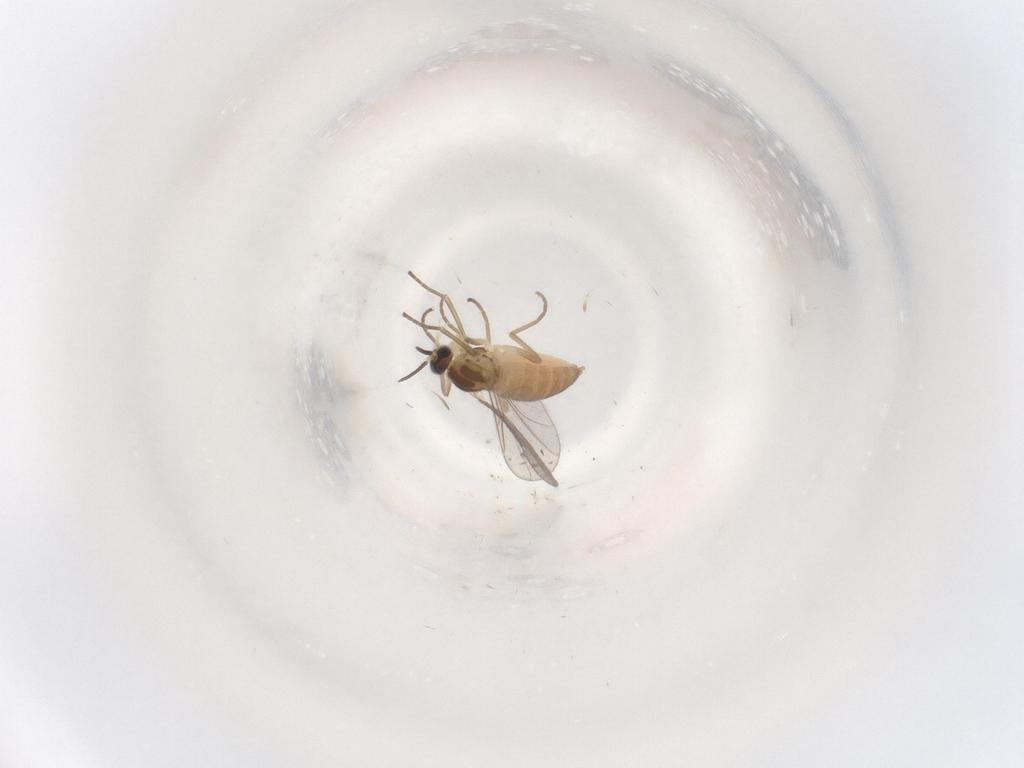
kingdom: Animalia
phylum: Arthropoda
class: Insecta
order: Diptera
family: Cecidomyiidae
